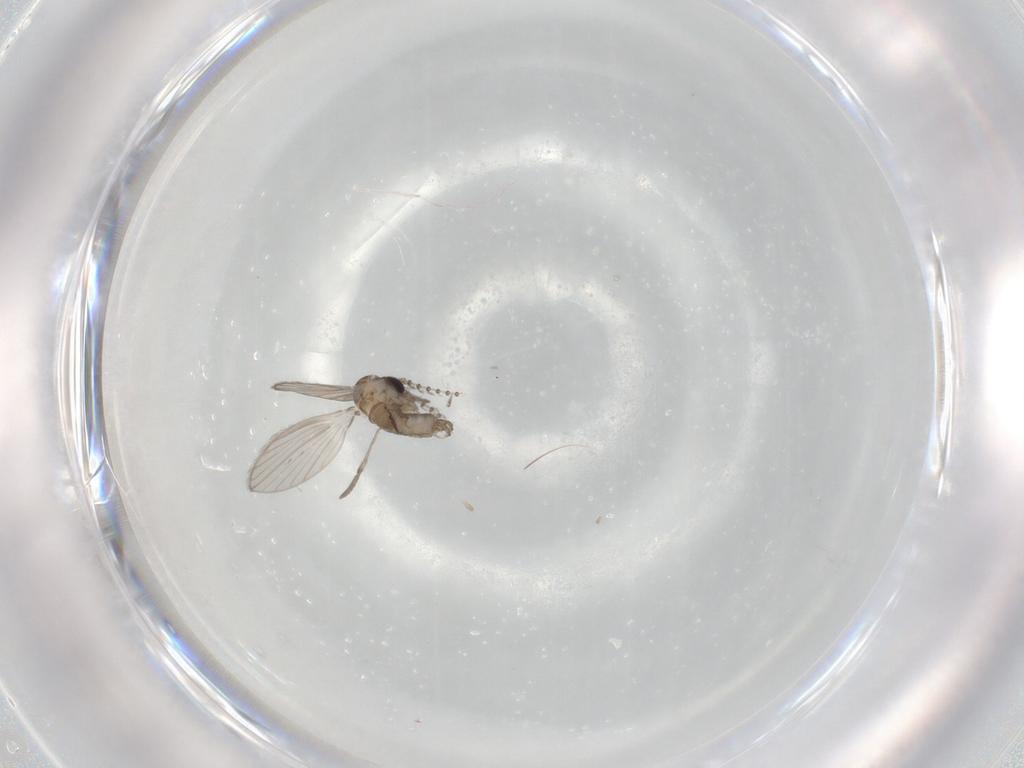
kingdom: Animalia
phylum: Arthropoda
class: Insecta
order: Diptera
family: Psychodidae
